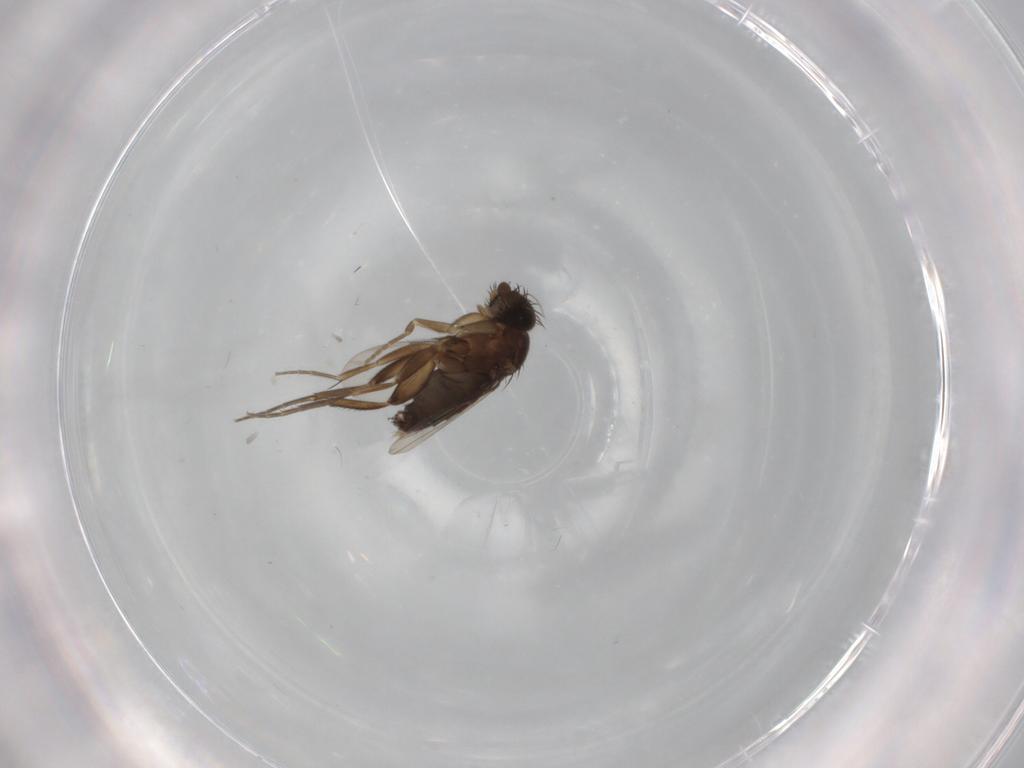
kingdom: Animalia
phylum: Arthropoda
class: Insecta
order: Diptera
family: Phoridae
